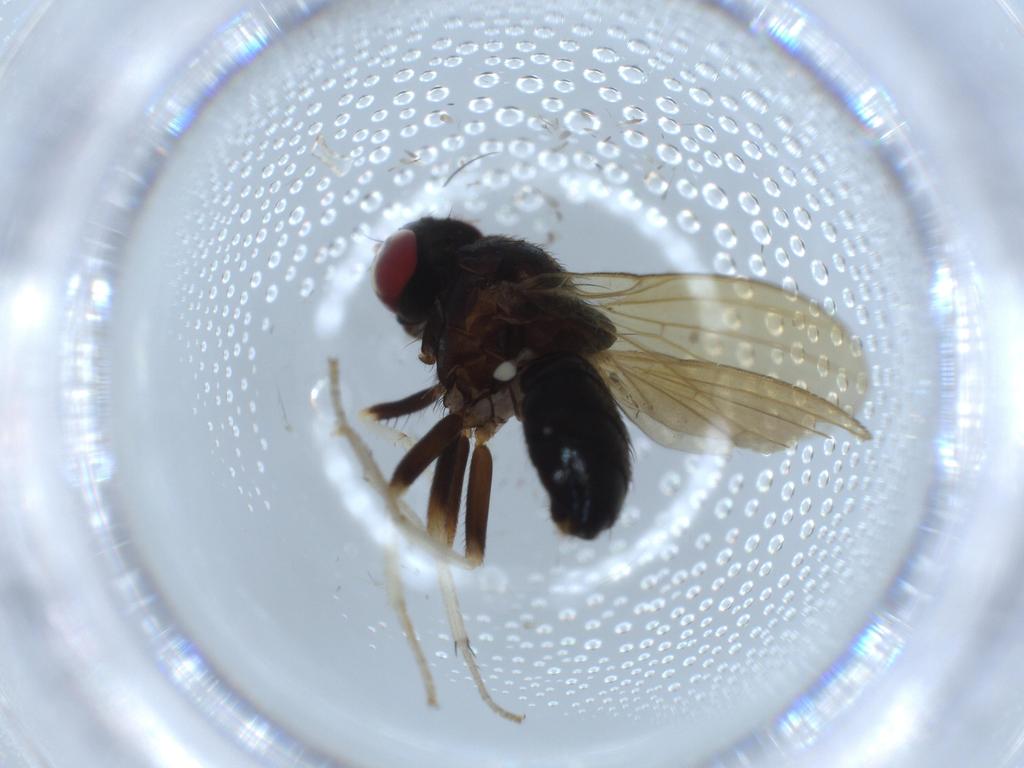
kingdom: Animalia
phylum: Arthropoda
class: Insecta
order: Diptera
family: Lauxaniidae
